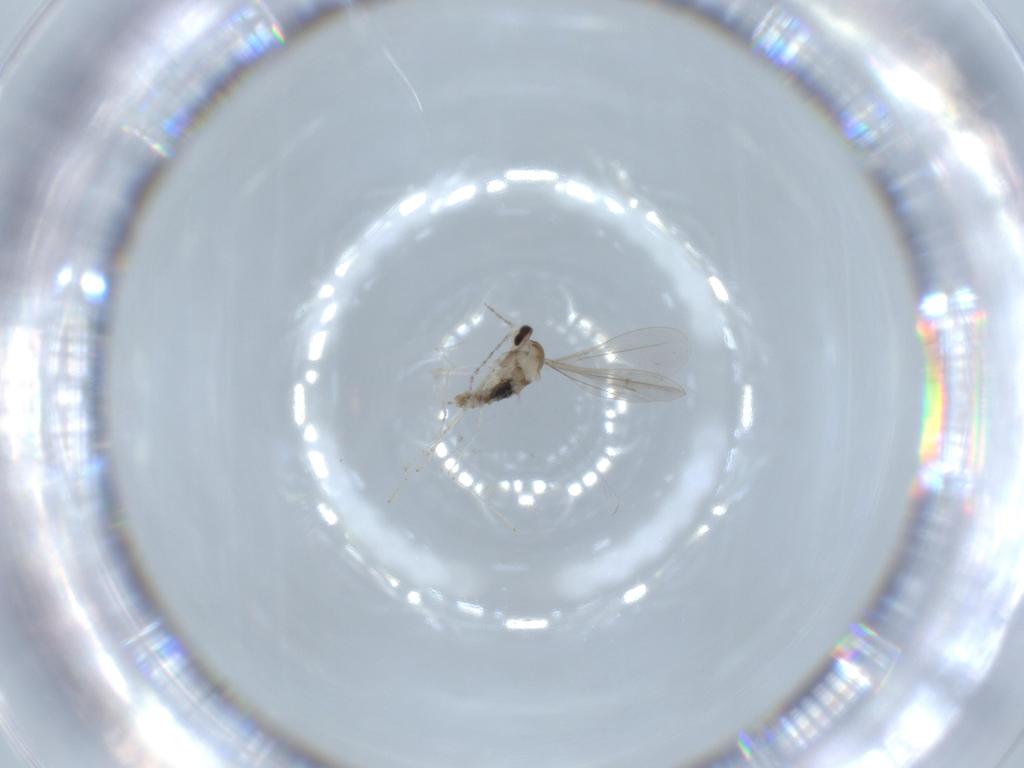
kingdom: Animalia
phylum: Arthropoda
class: Insecta
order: Diptera
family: Cecidomyiidae
